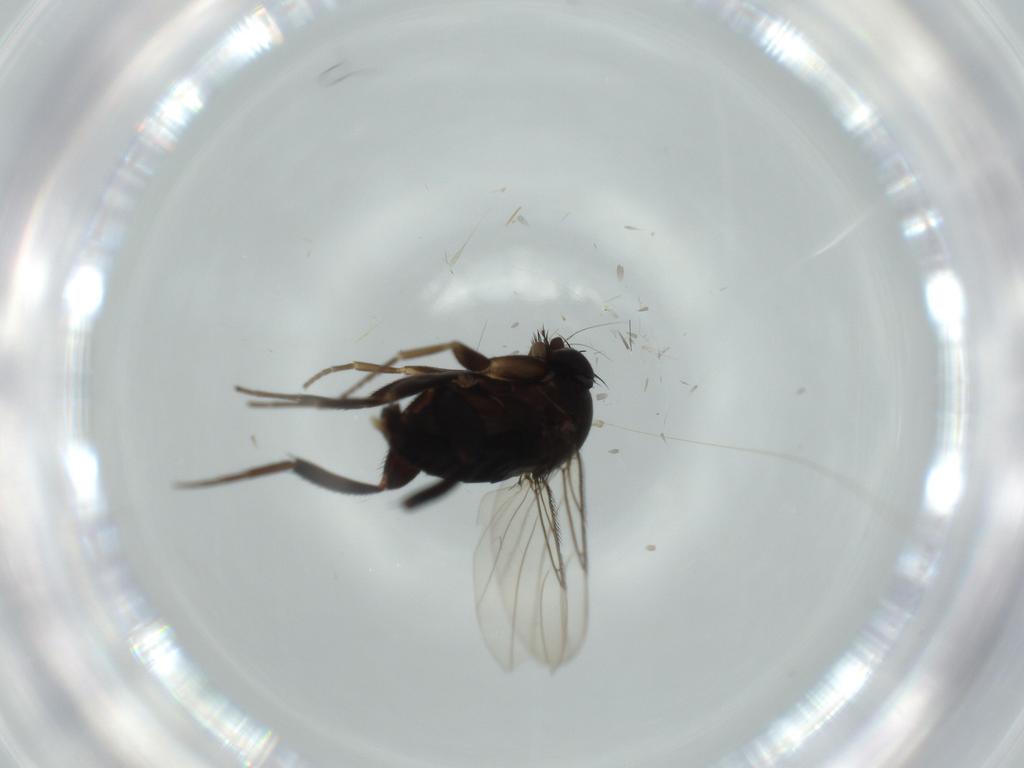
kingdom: Animalia
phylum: Arthropoda
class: Insecta
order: Diptera
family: Phoridae
